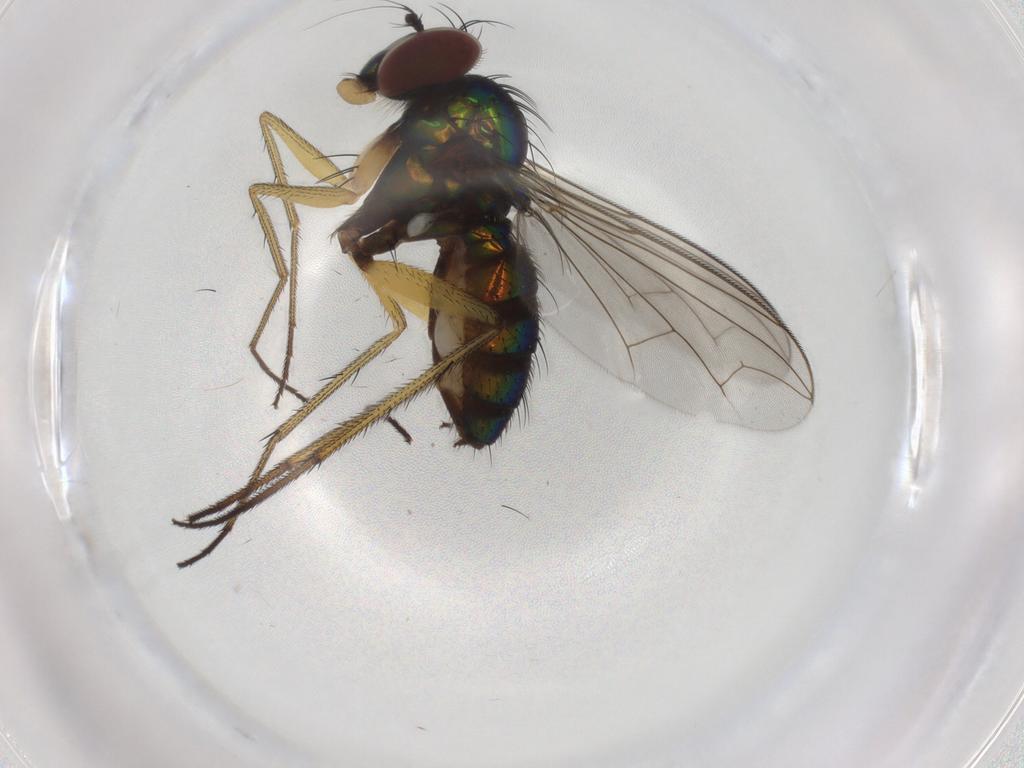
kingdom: Animalia
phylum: Arthropoda
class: Insecta
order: Diptera
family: Dolichopodidae
